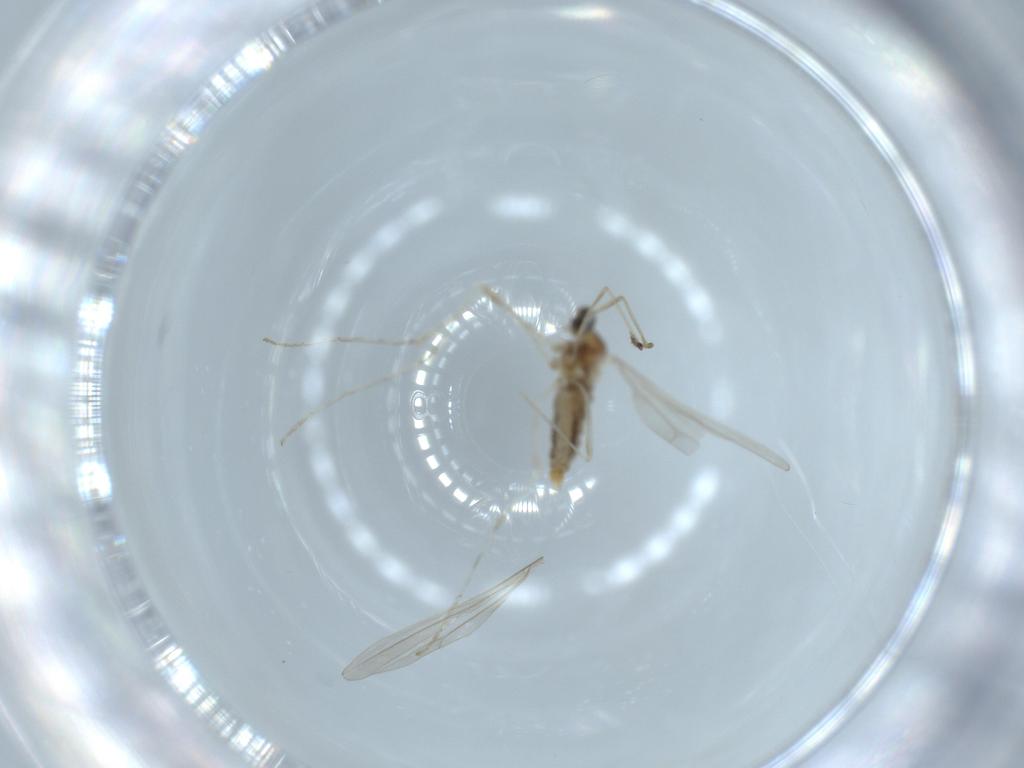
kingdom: Animalia
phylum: Arthropoda
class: Insecta
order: Diptera
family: Cecidomyiidae
